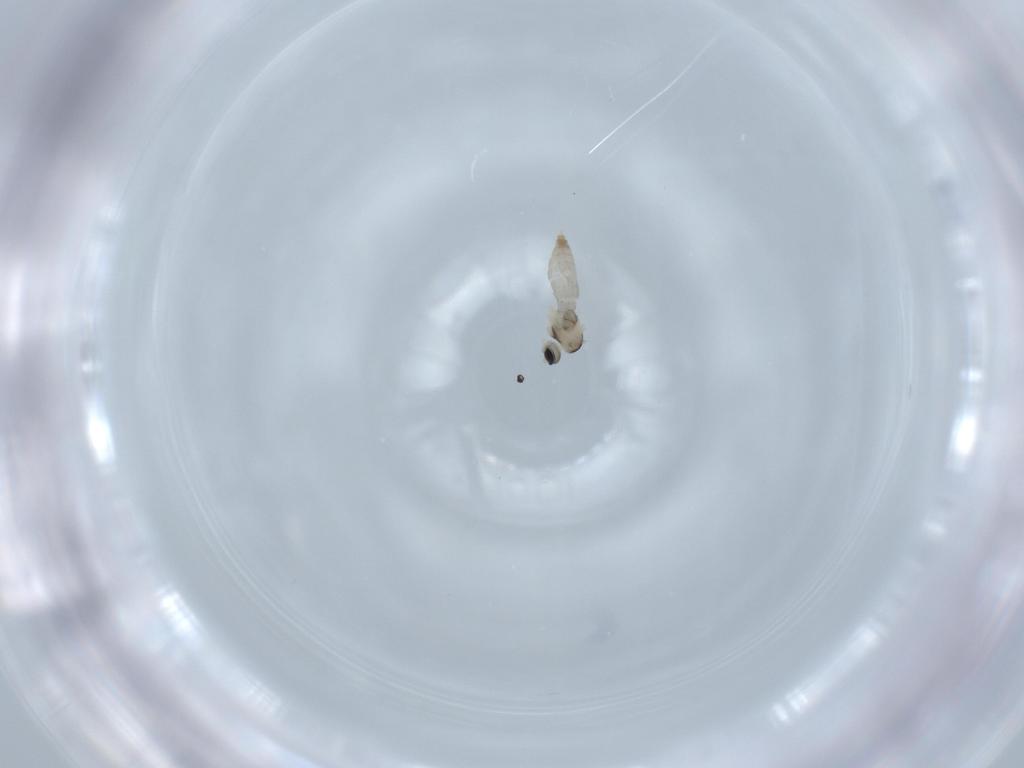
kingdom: Animalia
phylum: Arthropoda
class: Insecta
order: Diptera
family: Cecidomyiidae
